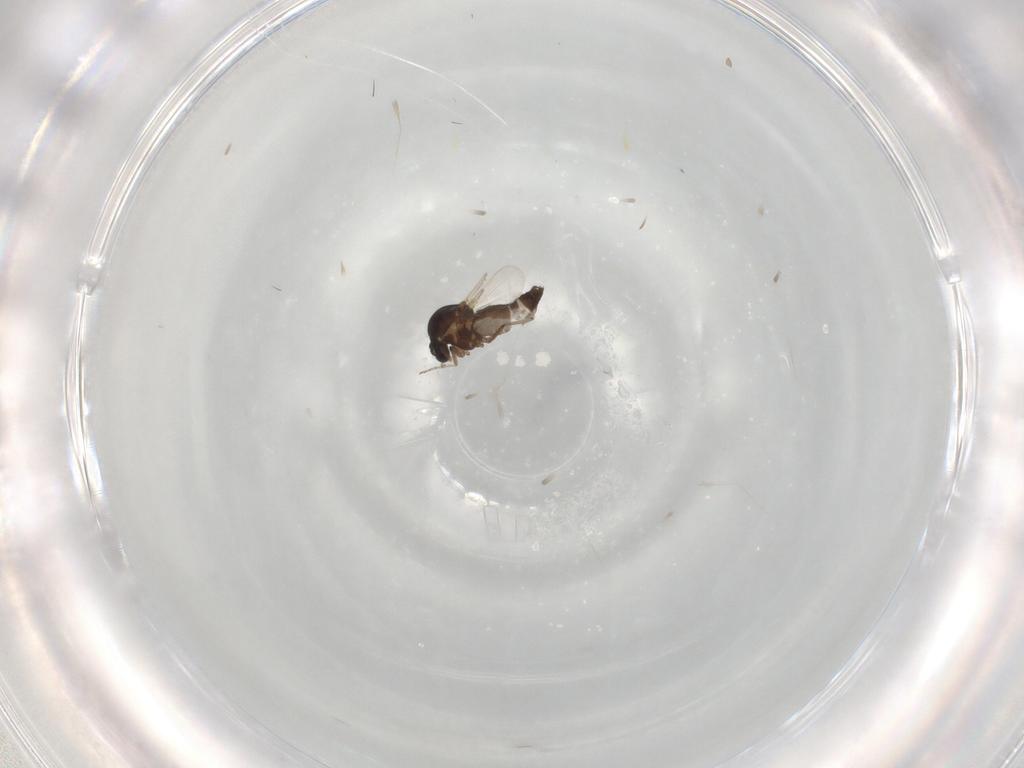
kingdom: Animalia
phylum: Arthropoda
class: Insecta
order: Diptera
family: Ceratopogonidae
